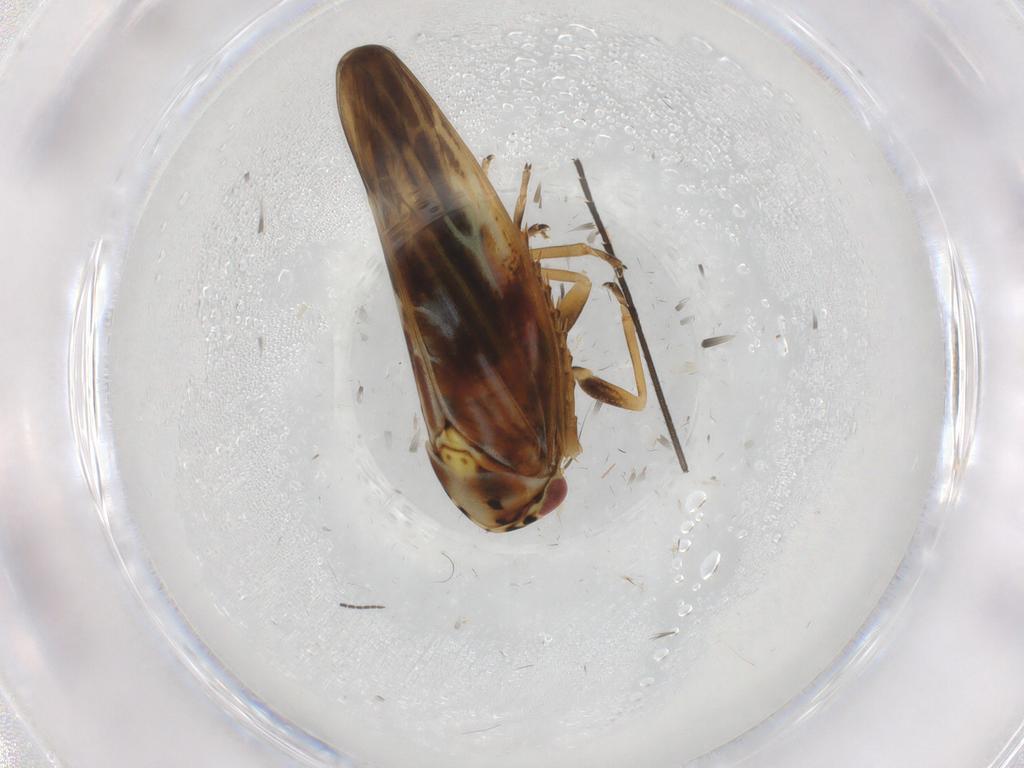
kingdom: Animalia
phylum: Arthropoda
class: Insecta
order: Hemiptera
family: Cicadellidae
